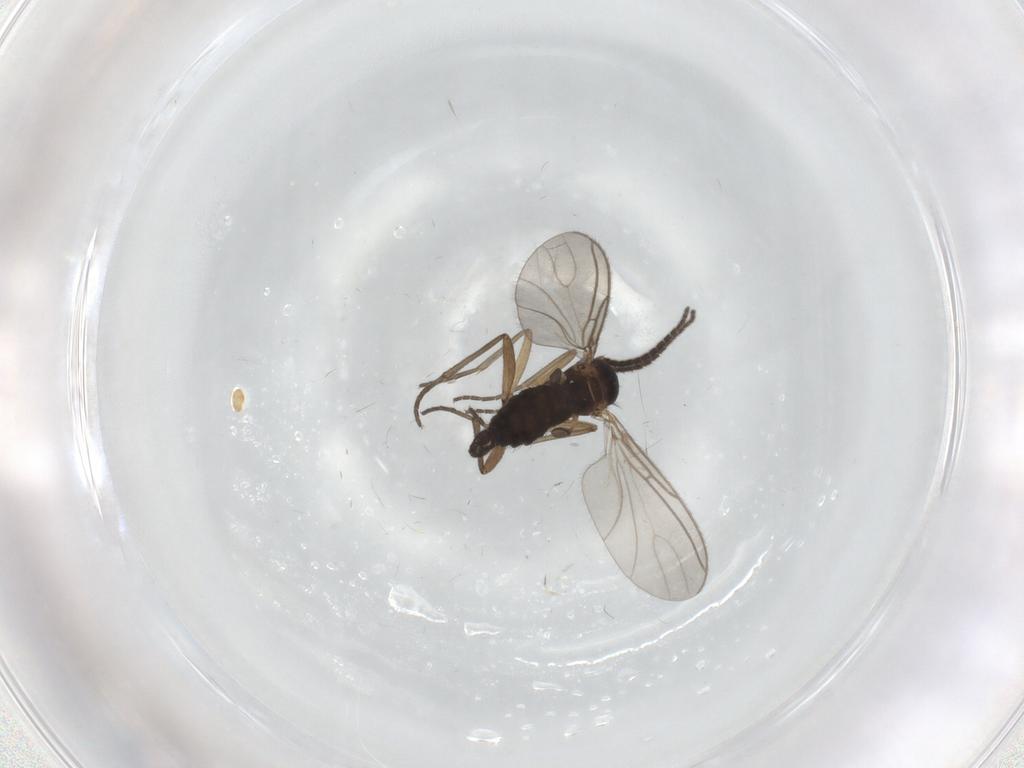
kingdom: Animalia
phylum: Arthropoda
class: Insecta
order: Diptera
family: Sciaridae
